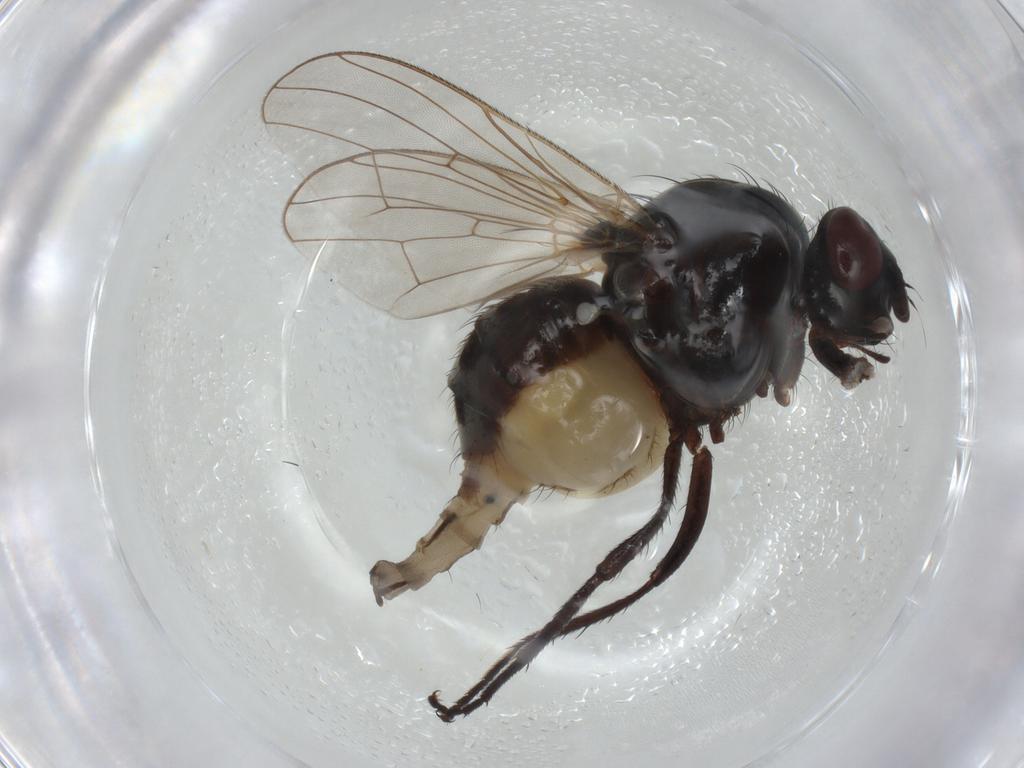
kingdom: Animalia
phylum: Arthropoda
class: Insecta
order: Diptera
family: Anthomyiidae
